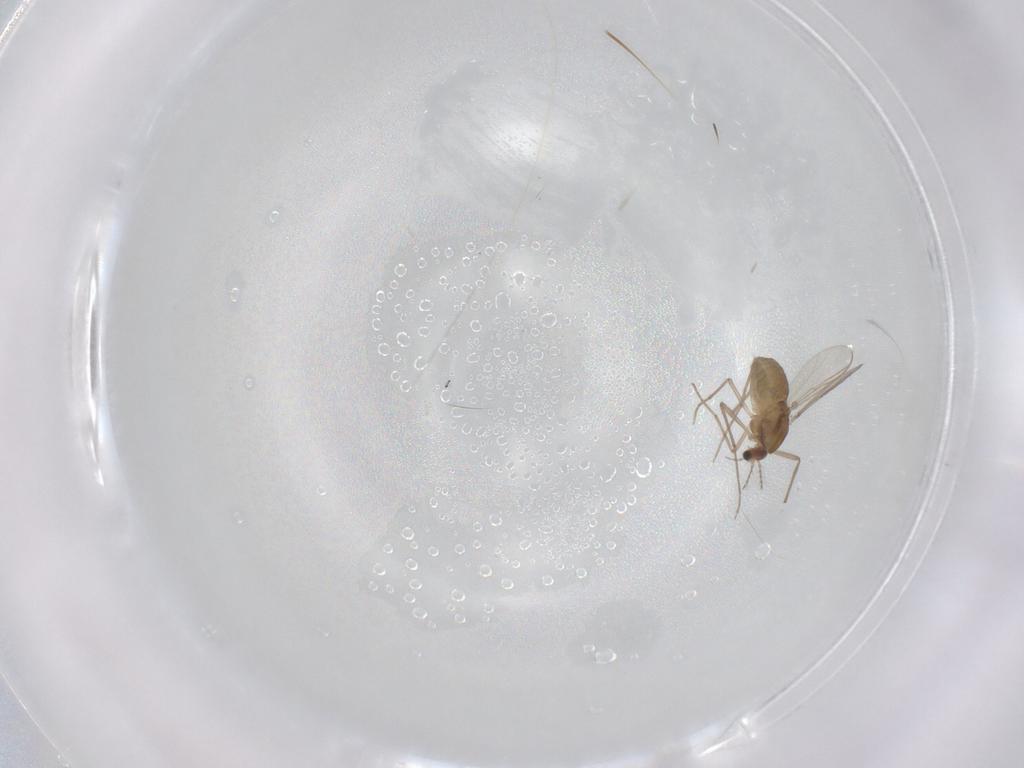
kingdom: Animalia
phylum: Arthropoda
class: Insecta
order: Diptera
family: Chironomidae
